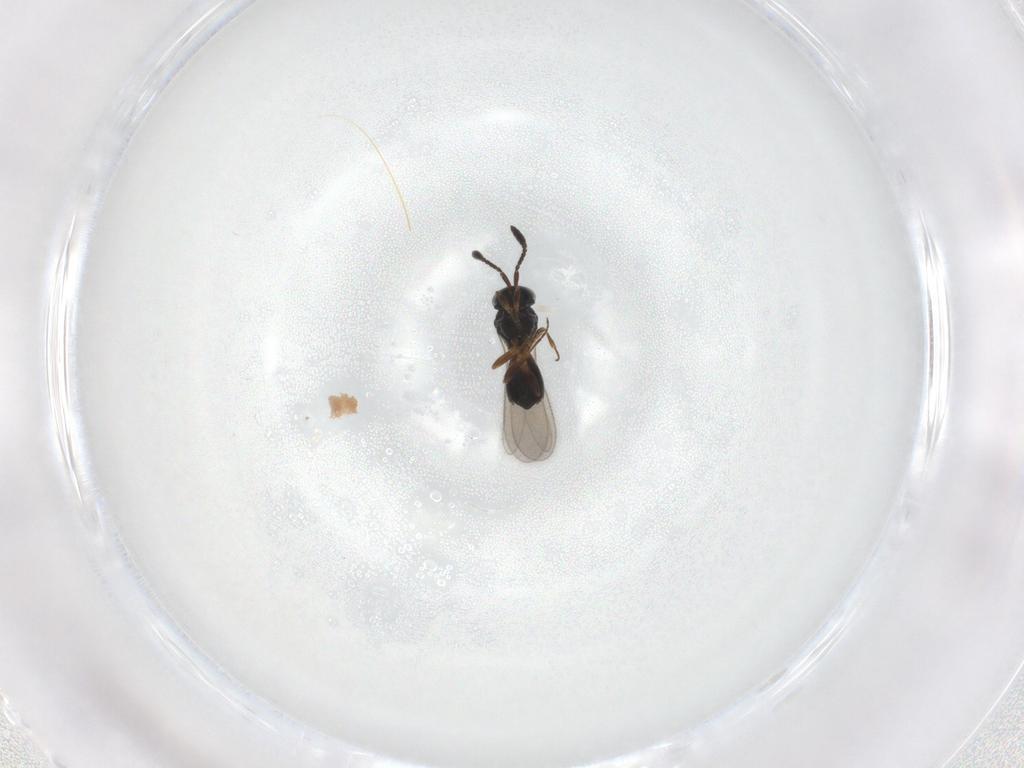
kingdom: Animalia
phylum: Arthropoda
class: Insecta
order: Hymenoptera
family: Scelionidae
